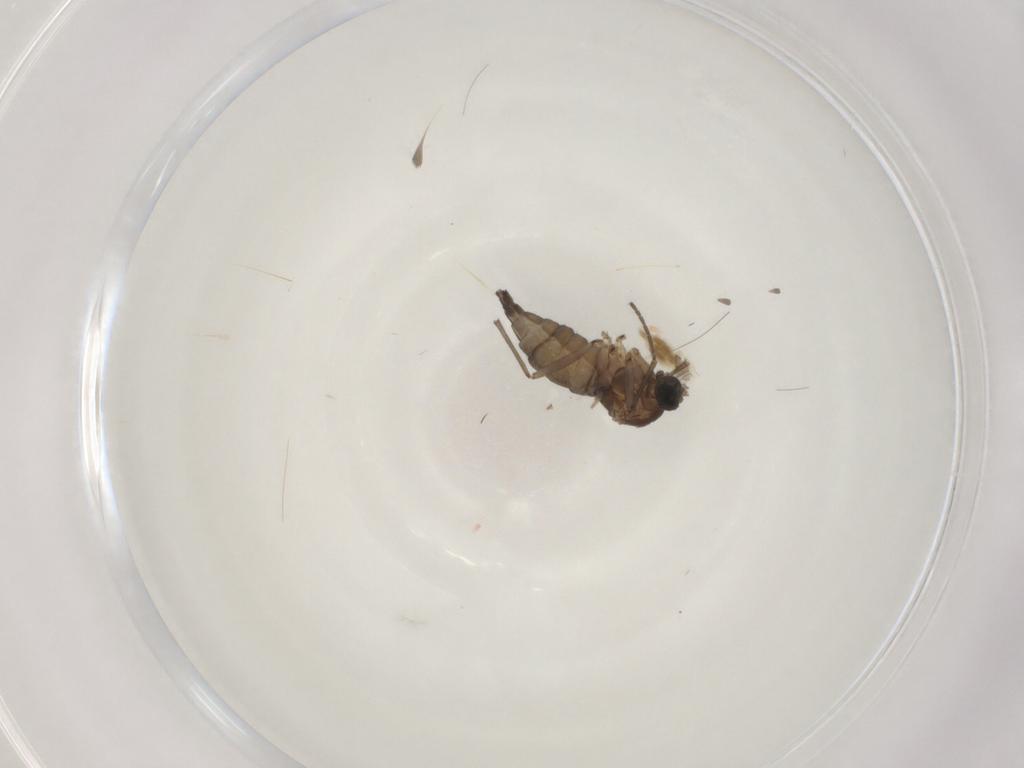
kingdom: Animalia
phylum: Arthropoda
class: Insecta
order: Diptera
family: Sciaridae
